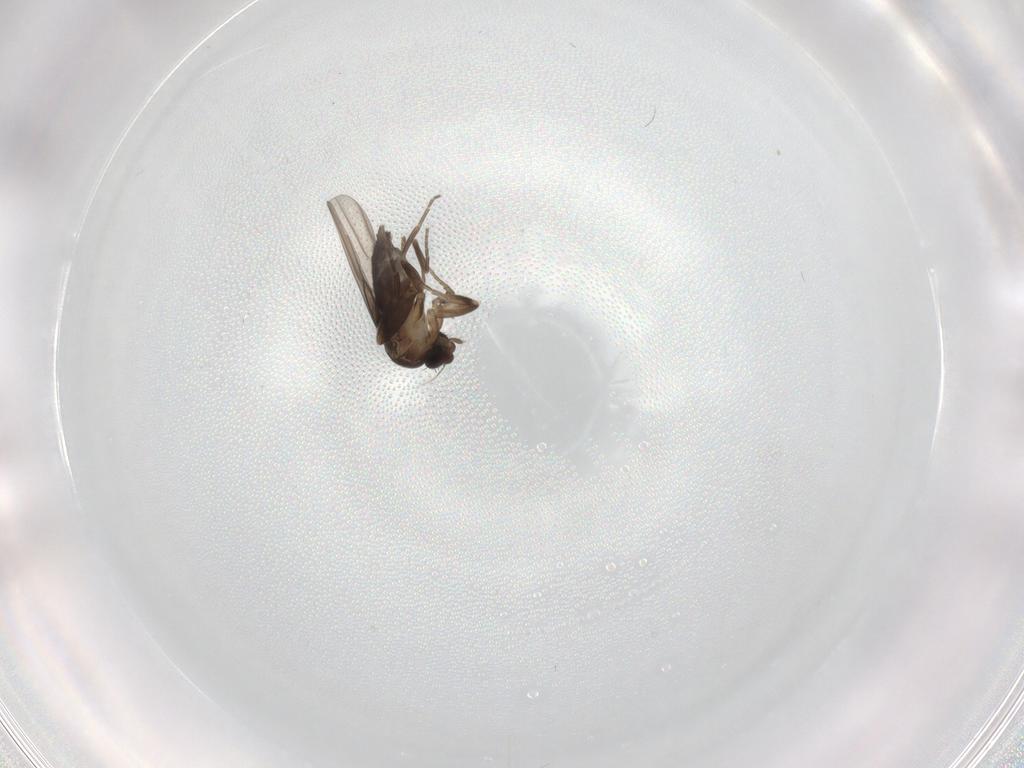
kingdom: Animalia
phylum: Arthropoda
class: Insecta
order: Diptera
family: Phoridae
